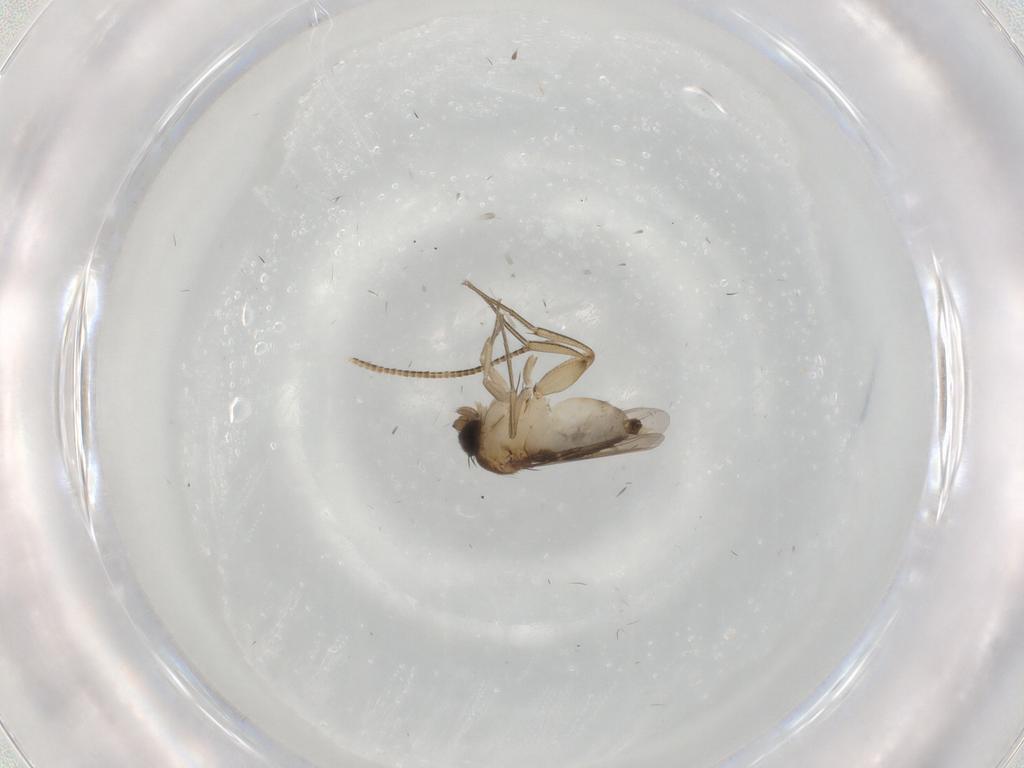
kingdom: Animalia
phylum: Arthropoda
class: Insecta
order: Diptera
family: Phoridae
